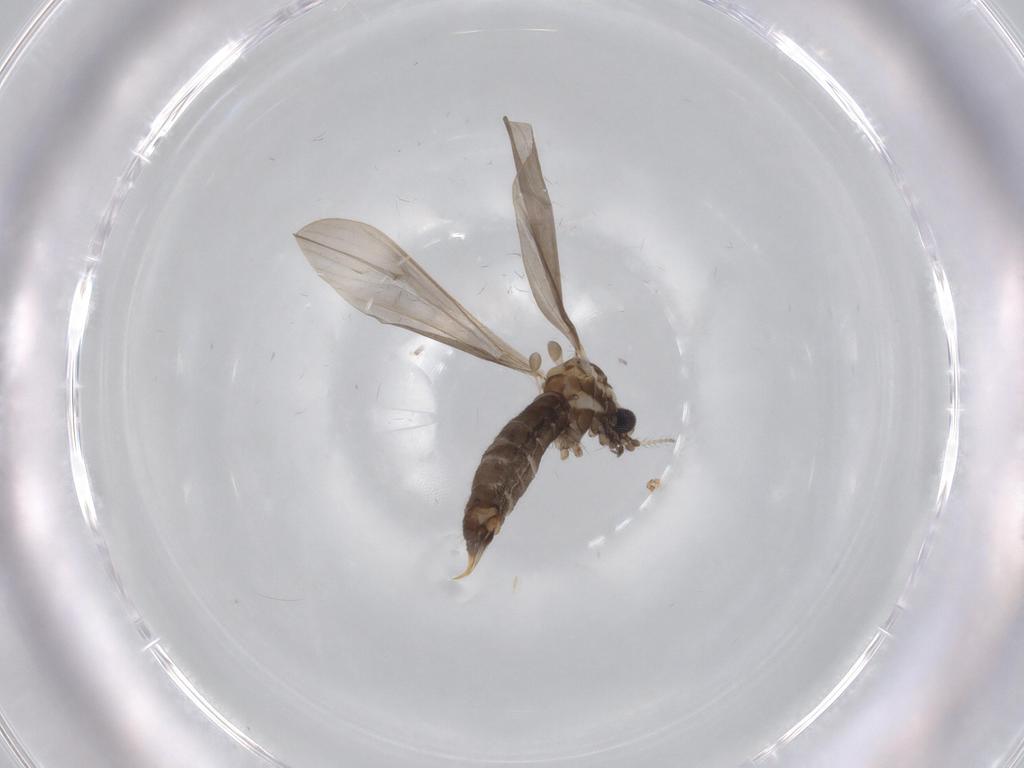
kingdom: Animalia
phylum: Arthropoda
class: Insecta
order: Diptera
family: Limoniidae
